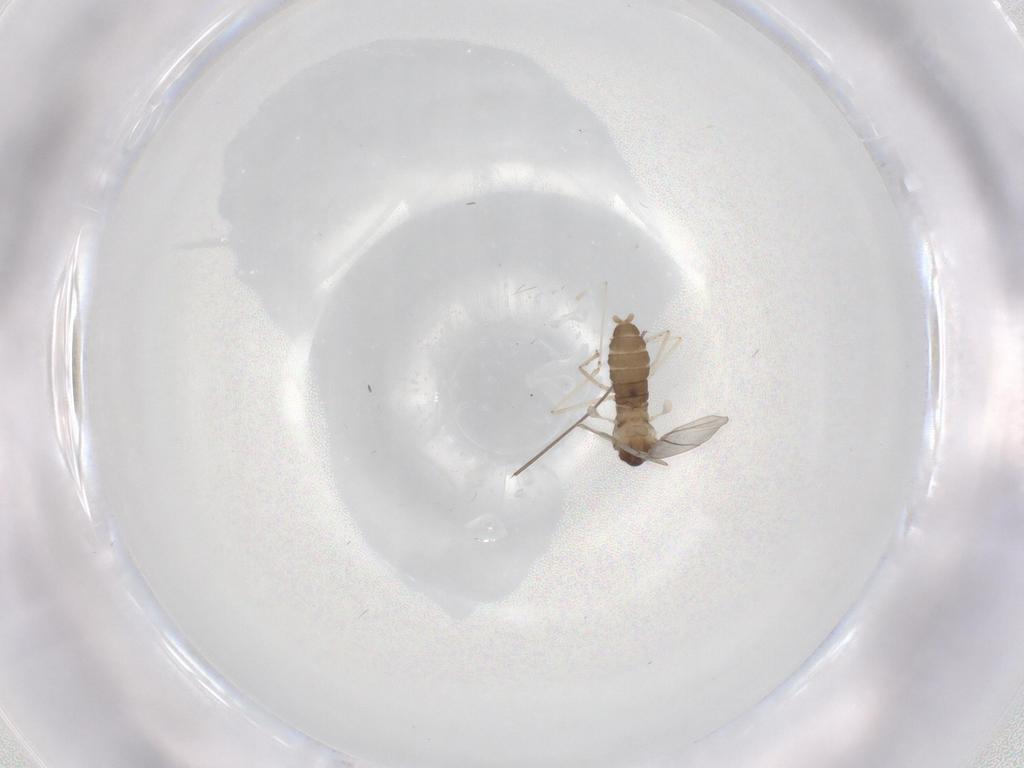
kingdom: Animalia
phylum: Arthropoda
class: Insecta
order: Diptera
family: Cecidomyiidae
